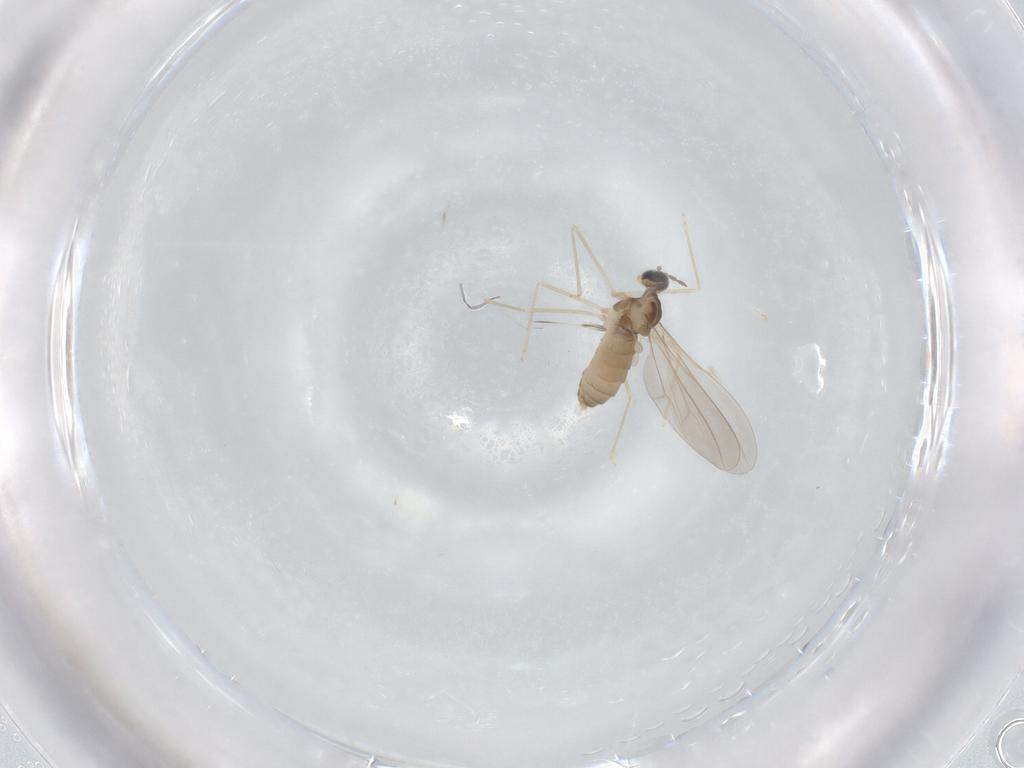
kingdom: Animalia
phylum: Arthropoda
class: Insecta
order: Diptera
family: Cecidomyiidae
